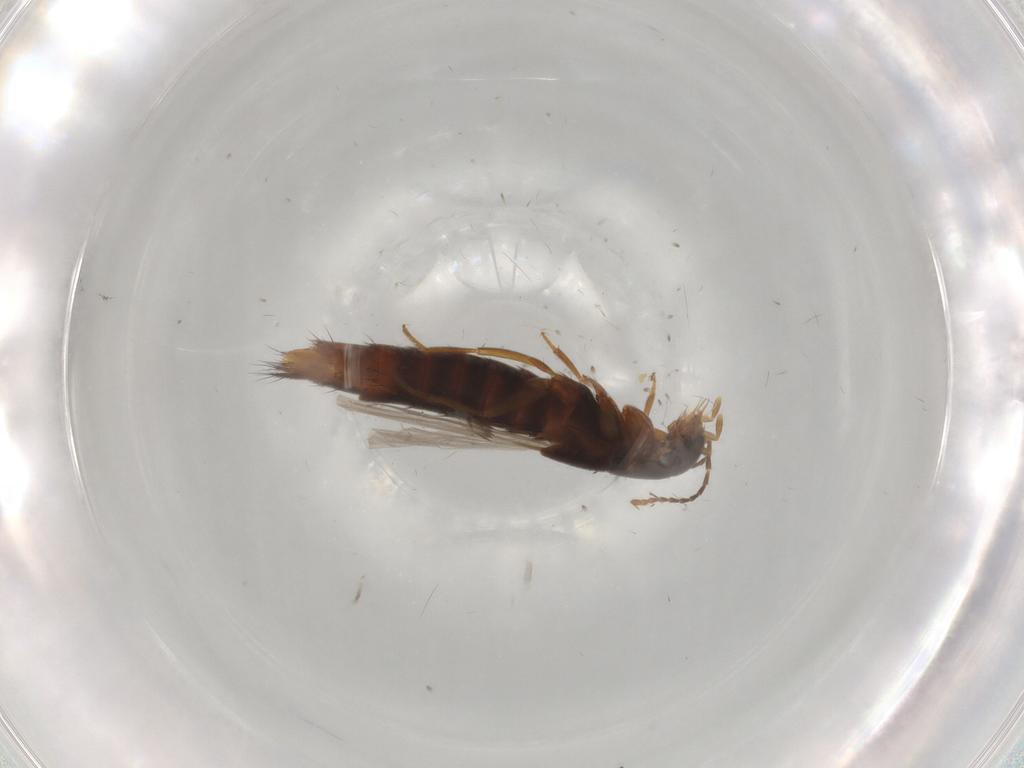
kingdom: Animalia
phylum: Arthropoda
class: Insecta
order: Coleoptera
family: Staphylinidae
